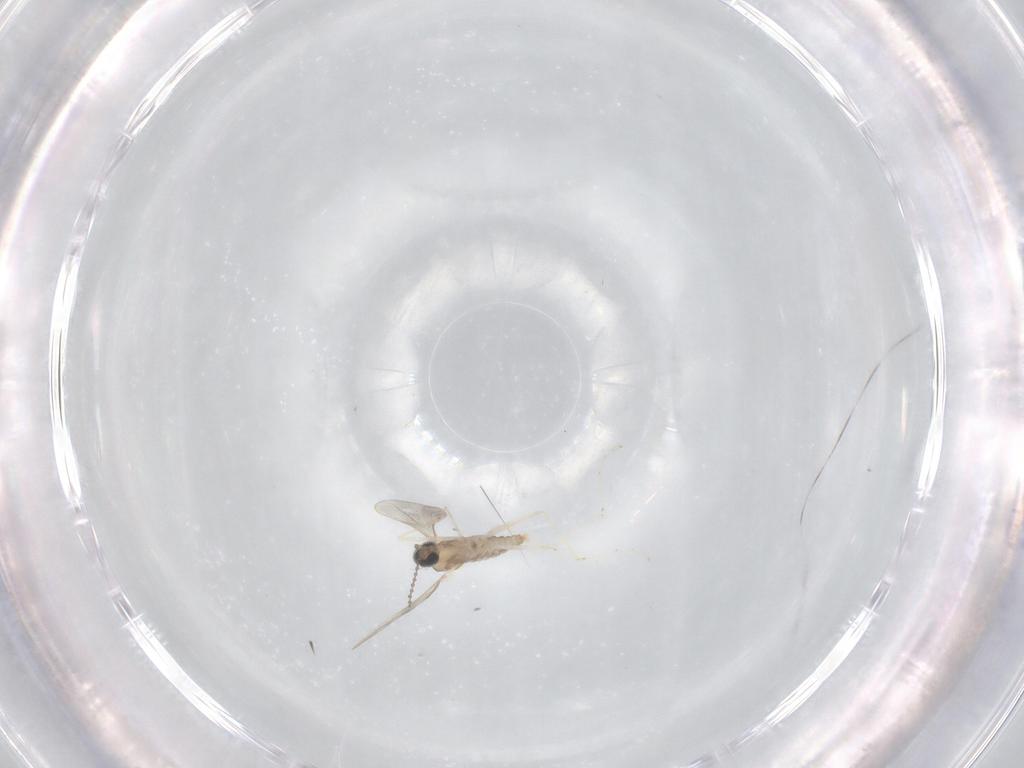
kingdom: Animalia
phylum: Arthropoda
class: Insecta
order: Diptera
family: Cecidomyiidae
